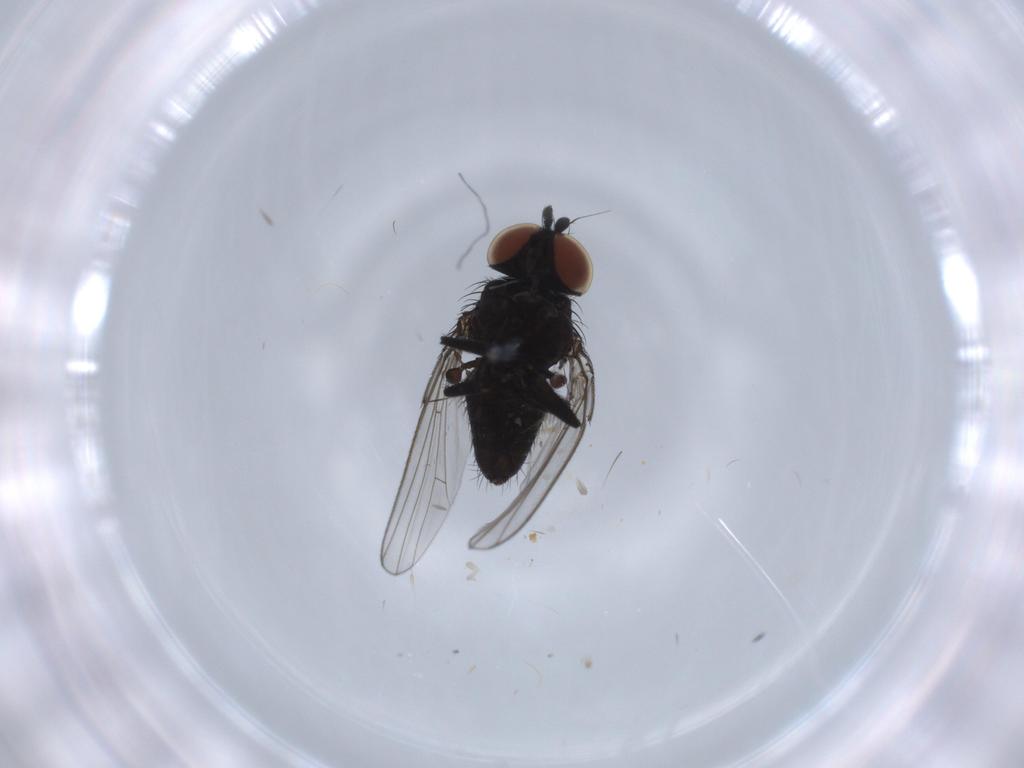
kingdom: Animalia
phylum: Arthropoda
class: Insecta
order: Diptera
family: Milichiidae
